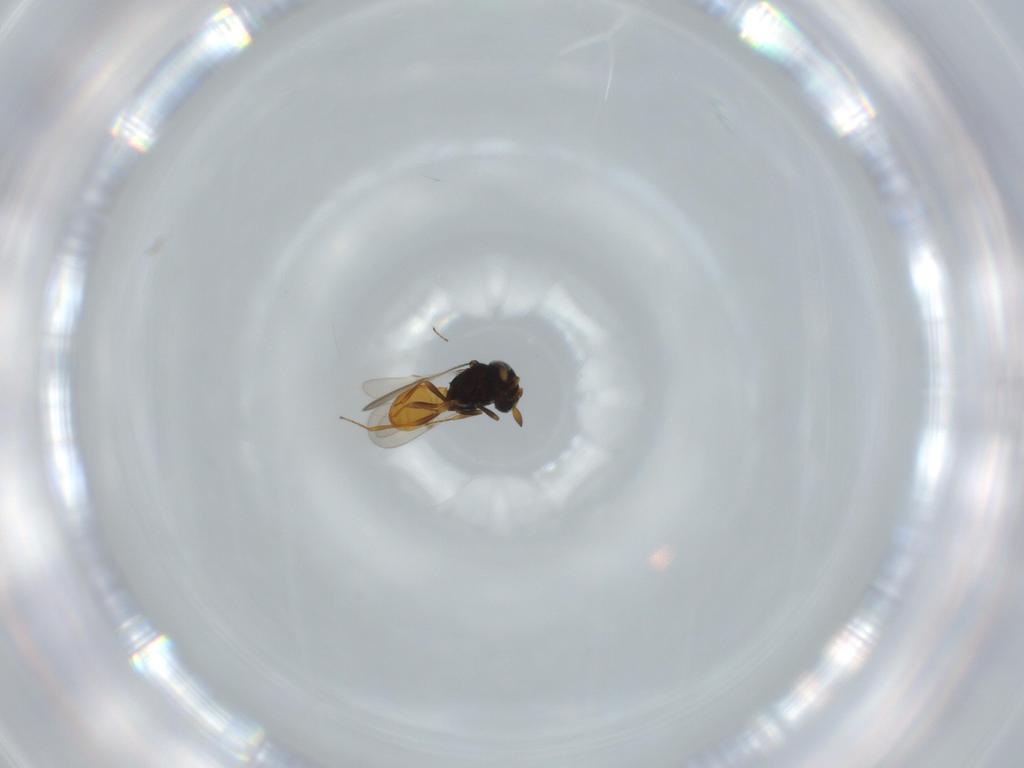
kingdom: Animalia
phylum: Arthropoda
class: Insecta
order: Hymenoptera
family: Scelionidae
